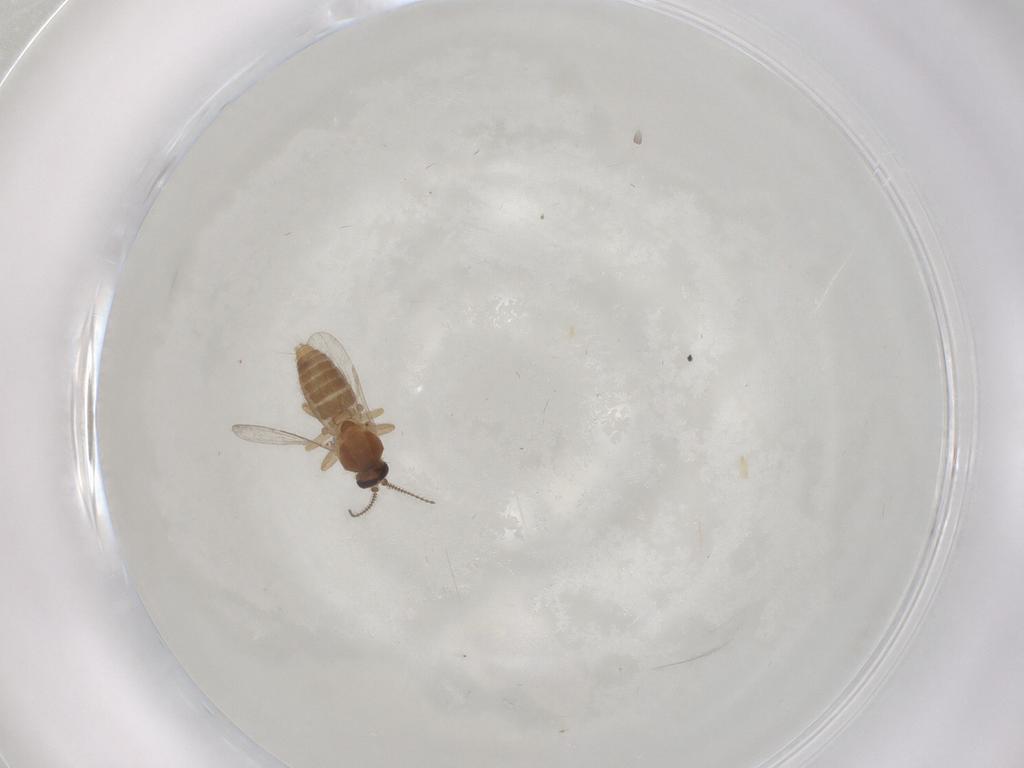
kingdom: Animalia
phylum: Arthropoda
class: Insecta
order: Diptera
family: Ceratopogonidae
